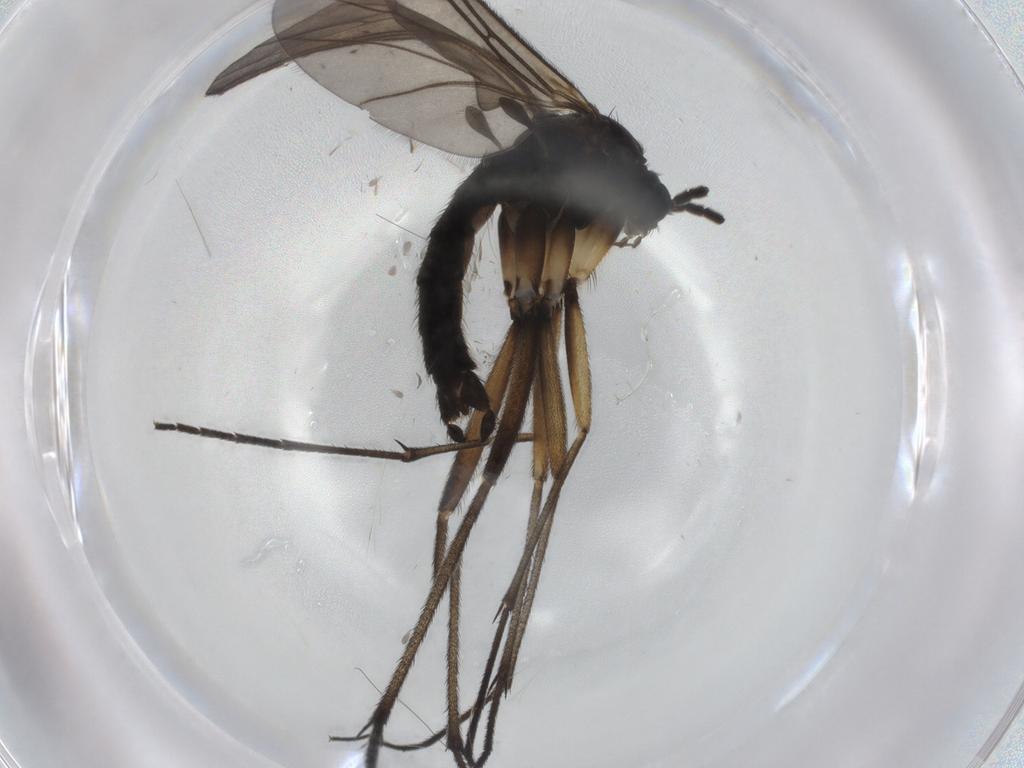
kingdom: Animalia
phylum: Arthropoda
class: Insecta
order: Diptera
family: Sciaridae
